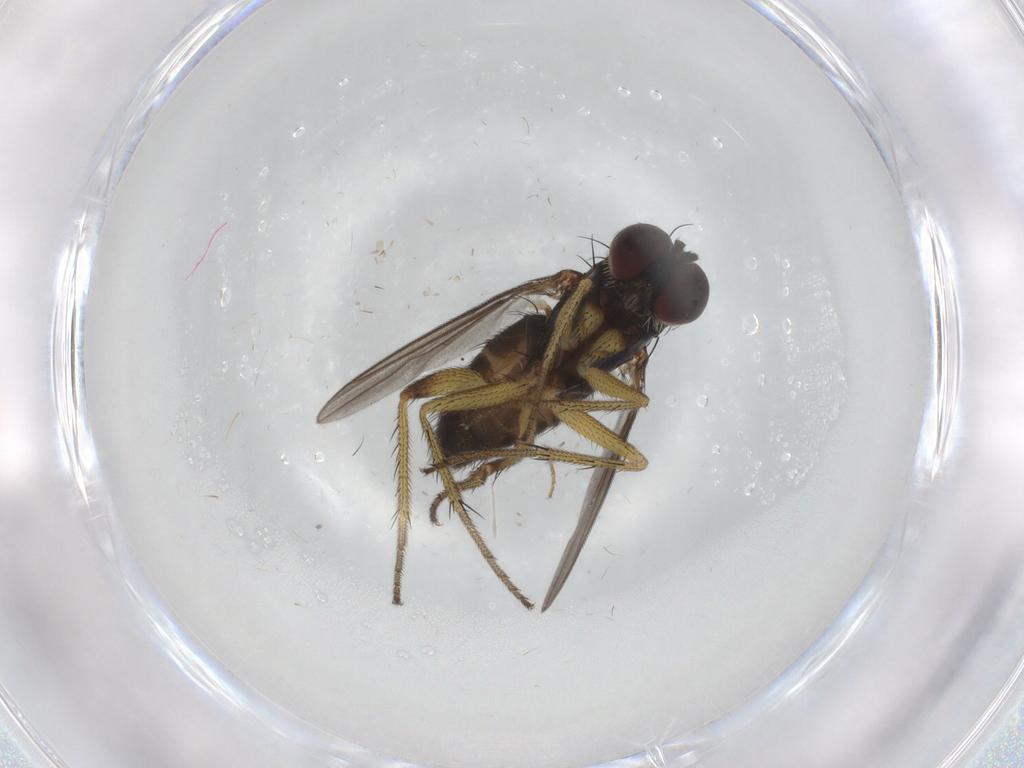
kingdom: Animalia
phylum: Arthropoda
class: Insecta
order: Diptera
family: Dolichopodidae
